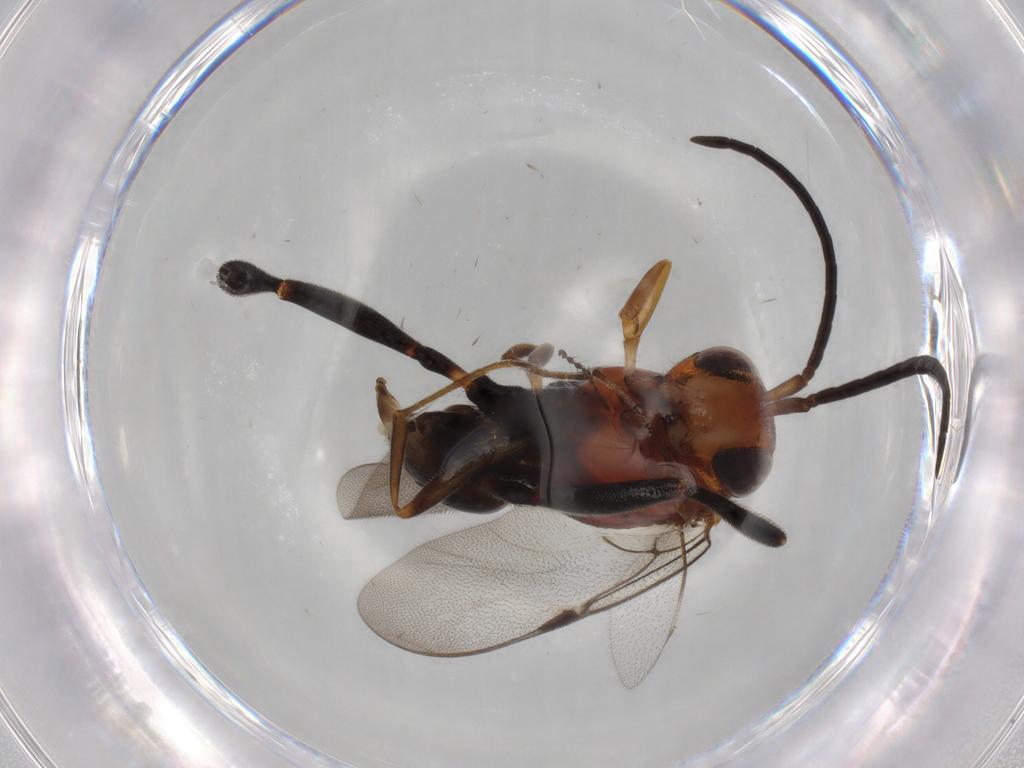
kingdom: Animalia
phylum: Arthropoda
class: Insecta
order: Hymenoptera
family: Evaniidae
